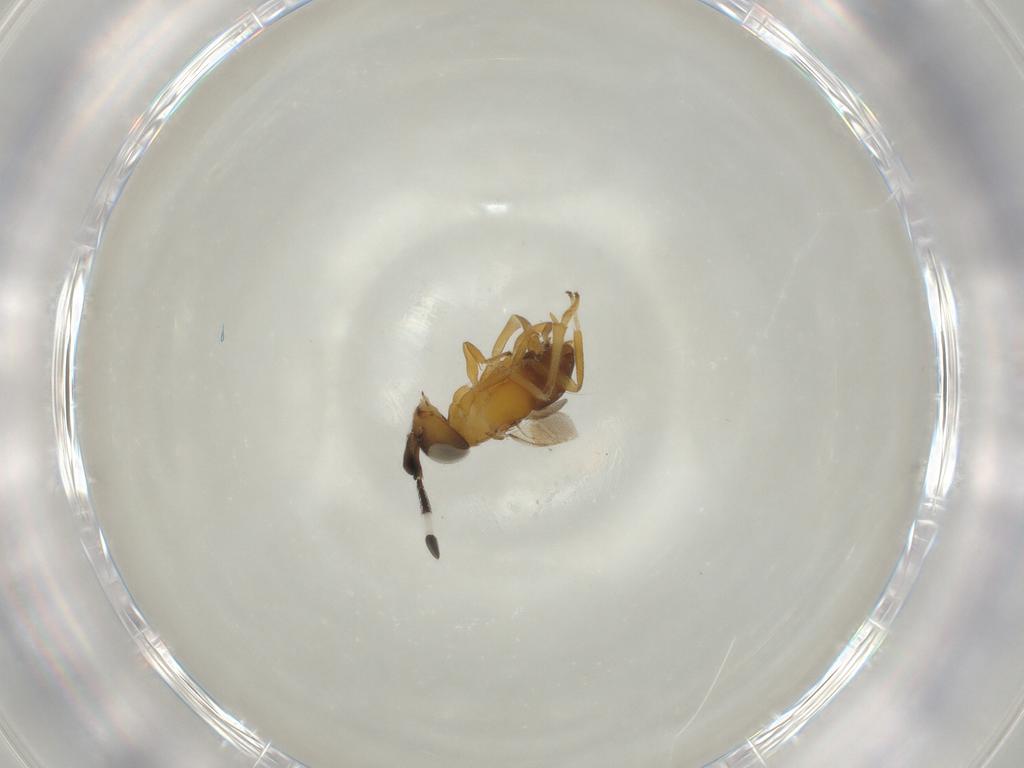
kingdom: Animalia
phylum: Arthropoda
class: Insecta
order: Hymenoptera
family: Encyrtidae
